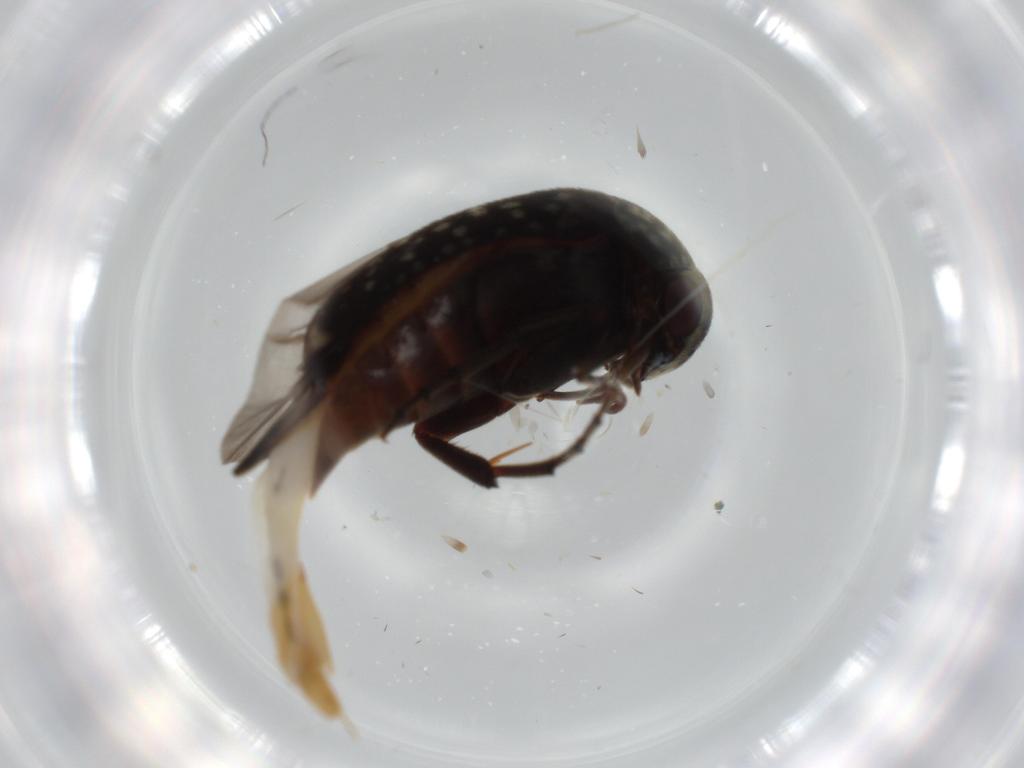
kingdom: Animalia
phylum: Arthropoda
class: Insecta
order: Coleoptera
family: Mordellidae
